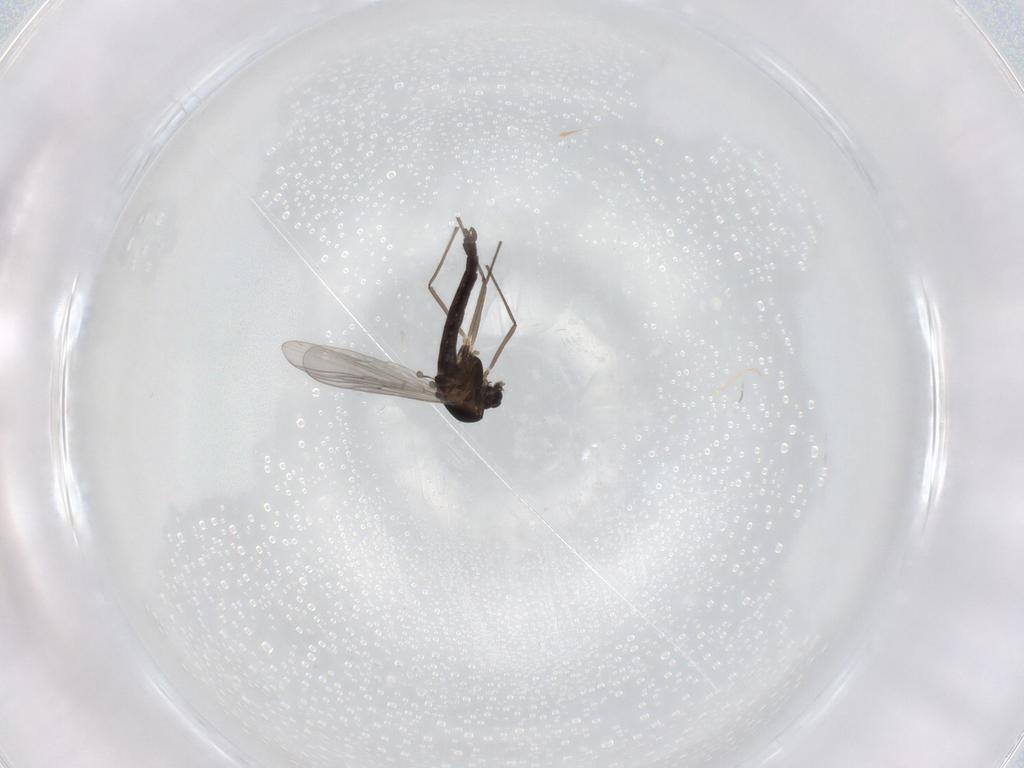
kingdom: Animalia
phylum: Arthropoda
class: Insecta
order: Diptera
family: Chironomidae
